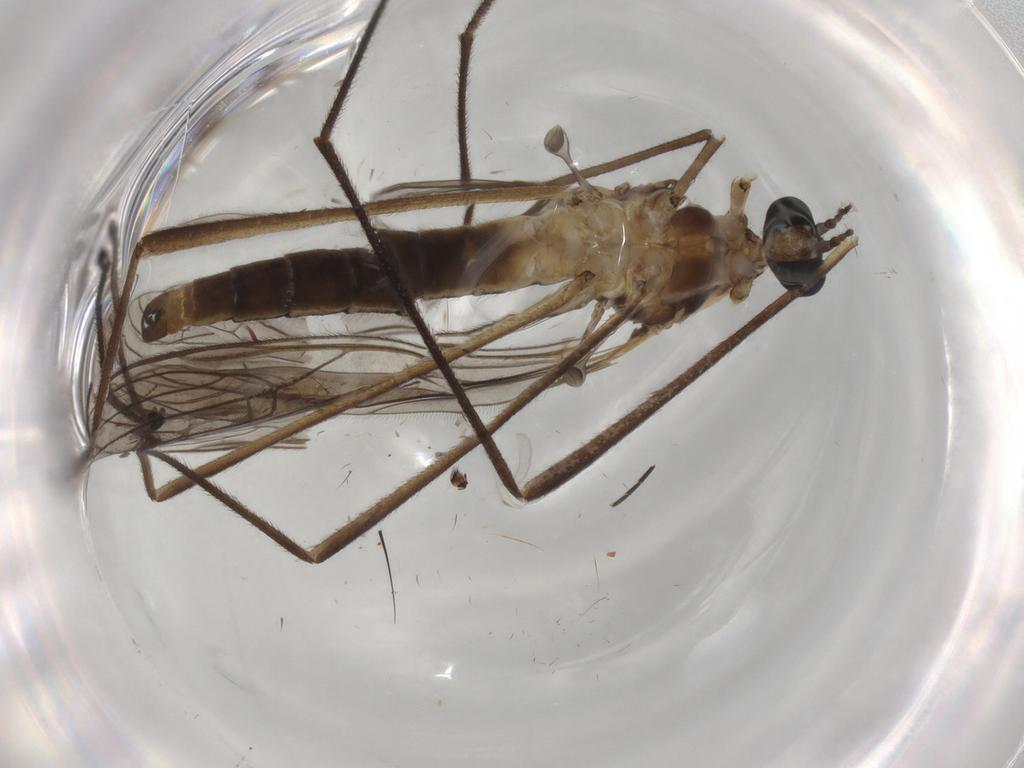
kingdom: Animalia
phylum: Arthropoda
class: Insecta
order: Diptera
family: Limoniidae
